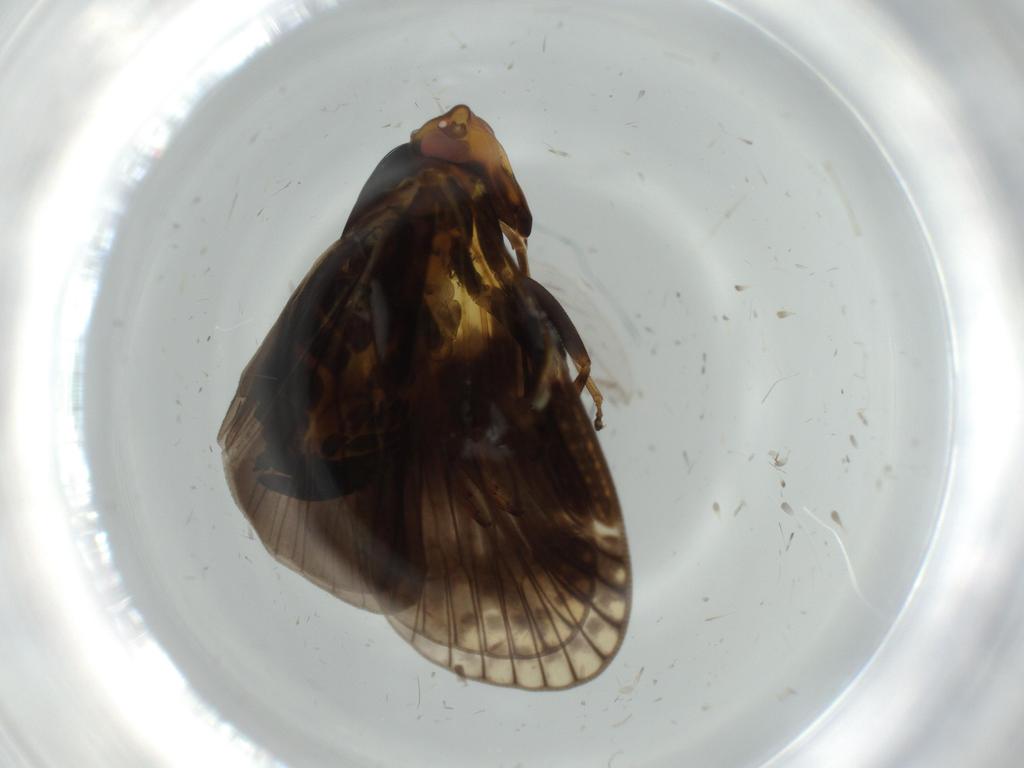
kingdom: Animalia
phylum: Arthropoda
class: Insecta
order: Hemiptera
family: Cixiidae
